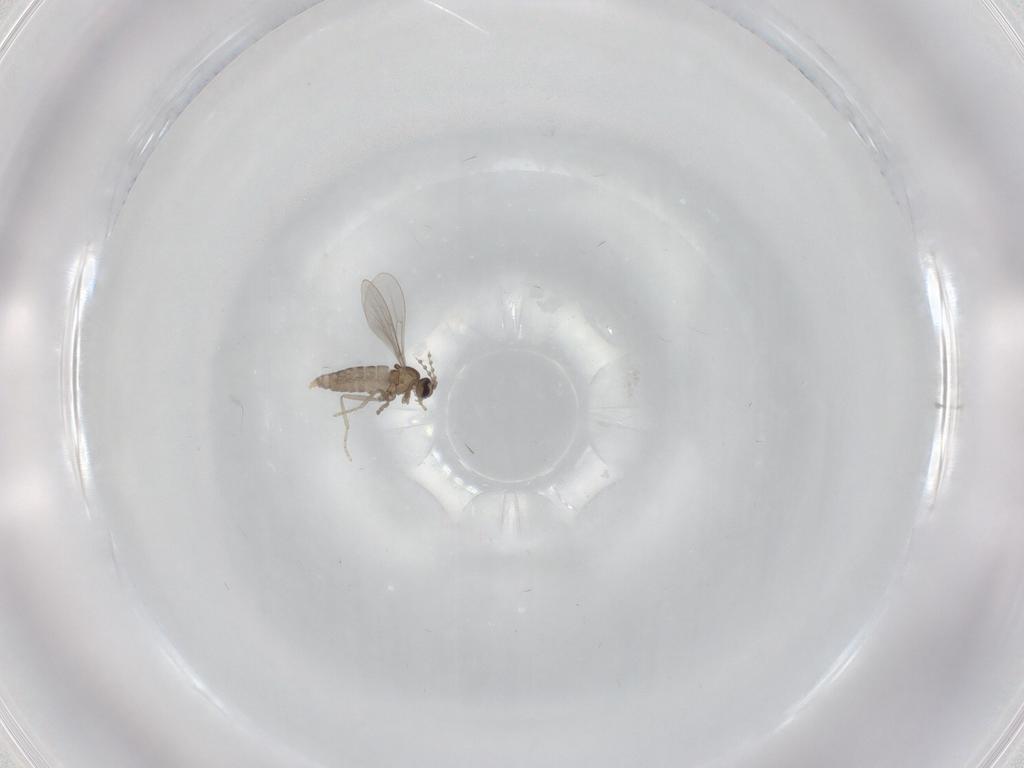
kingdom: Animalia
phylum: Arthropoda
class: Insecta
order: Diptera
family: Cecidomyiidae
